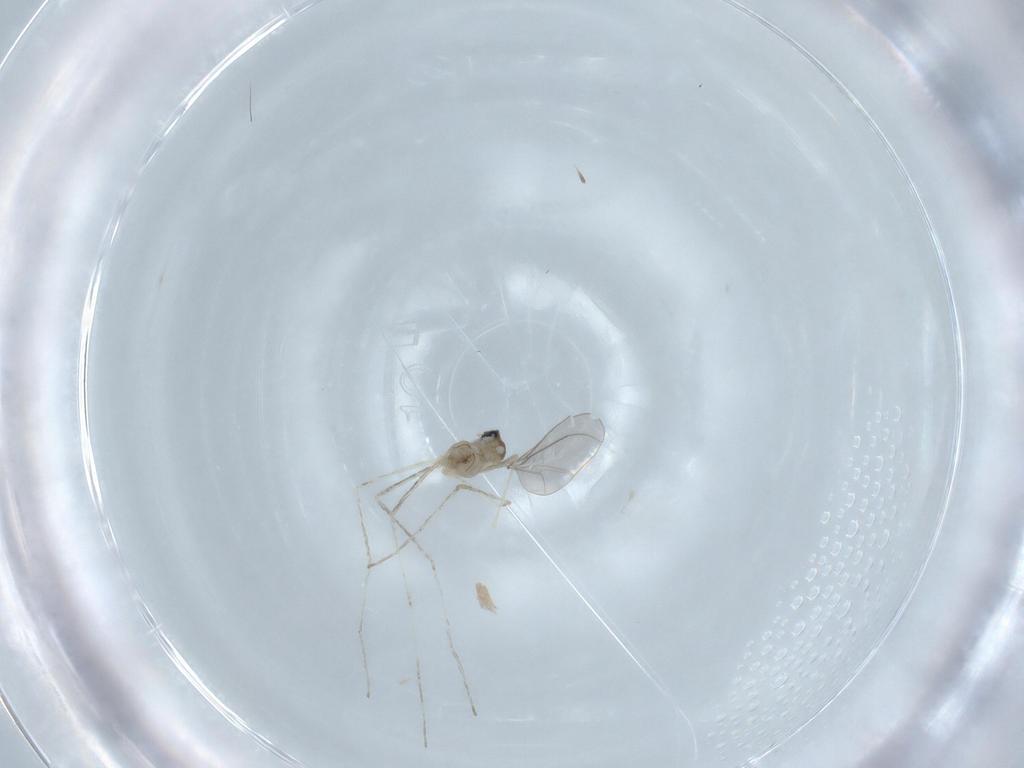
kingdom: Animalia
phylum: Arthropoda
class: Insecta
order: Diptera
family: Cecidomyiidae
